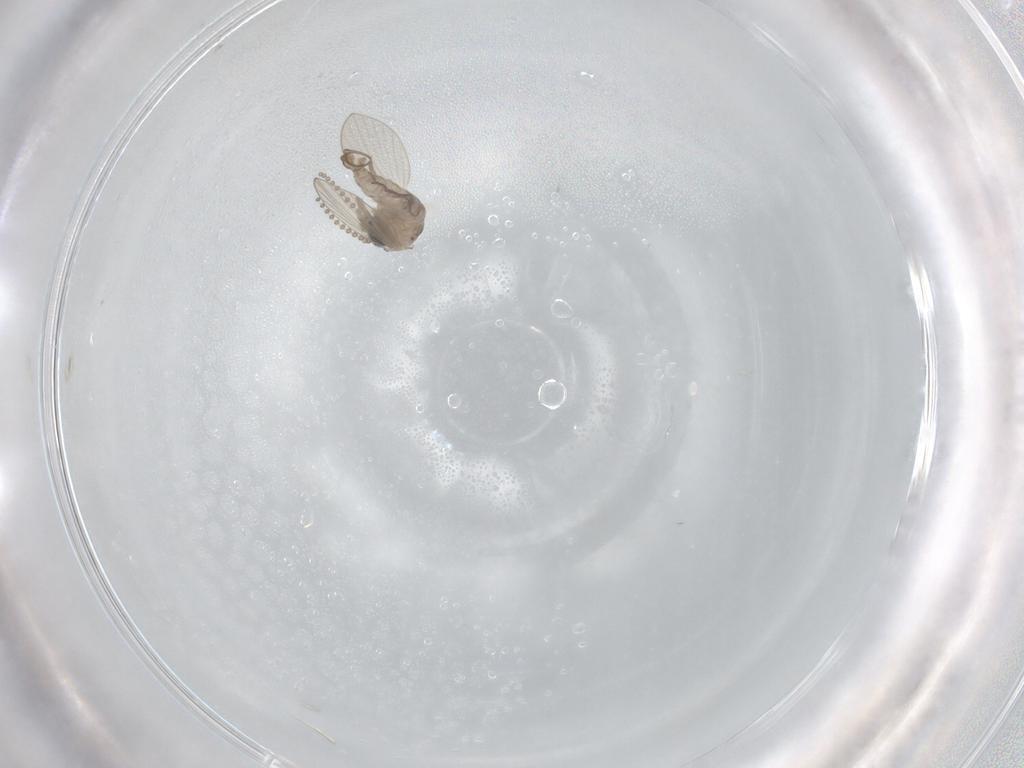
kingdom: Animalia
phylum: Arthropoda
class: Insecta
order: Diptera
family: Psychodidae
